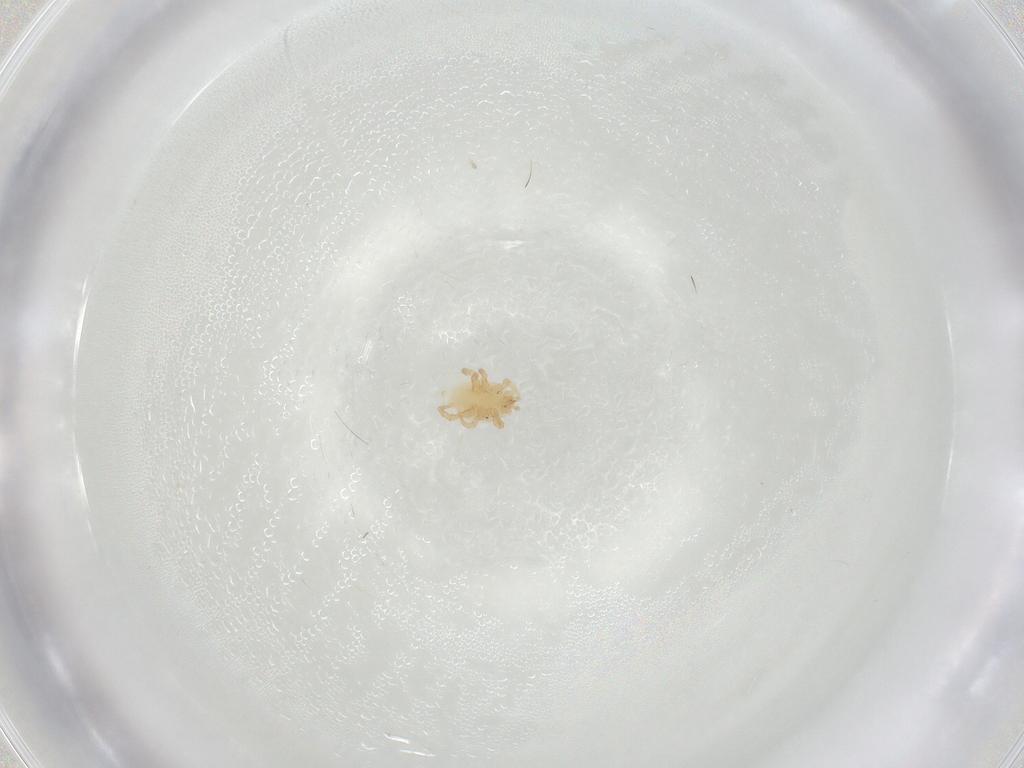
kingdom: Animalia
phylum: Arthropoda
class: Arachnida
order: Mesostigmata
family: Parasitidae
